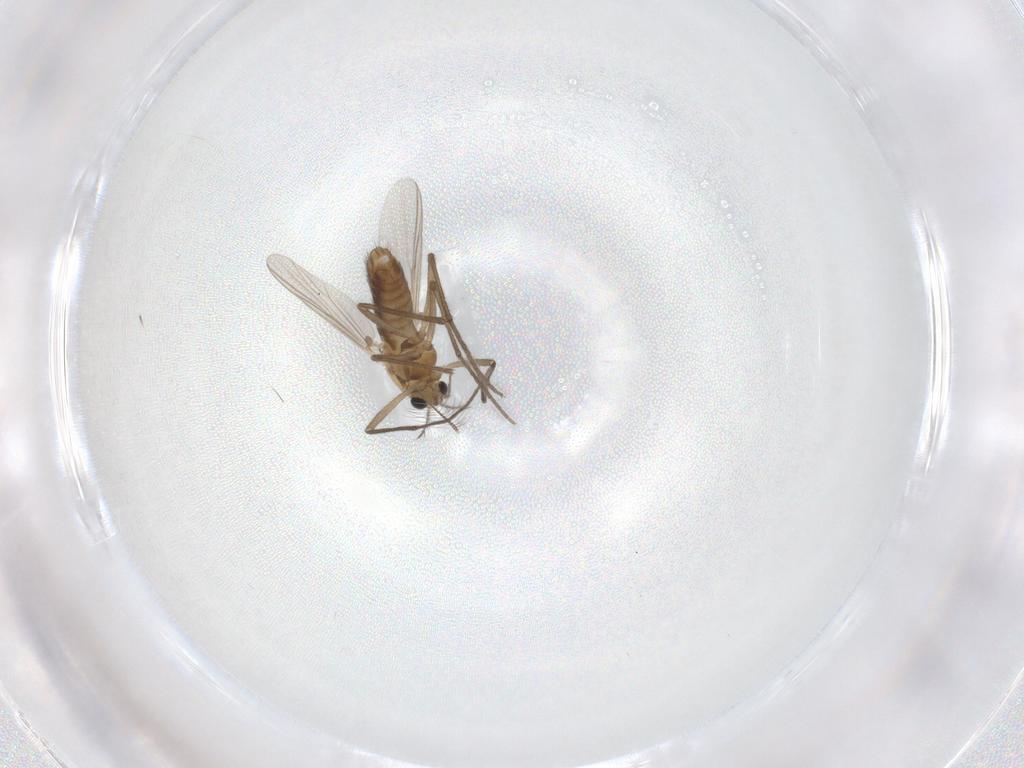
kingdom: Animalia
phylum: Arthropoda
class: Insecta
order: Diptera
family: Chironomidae
